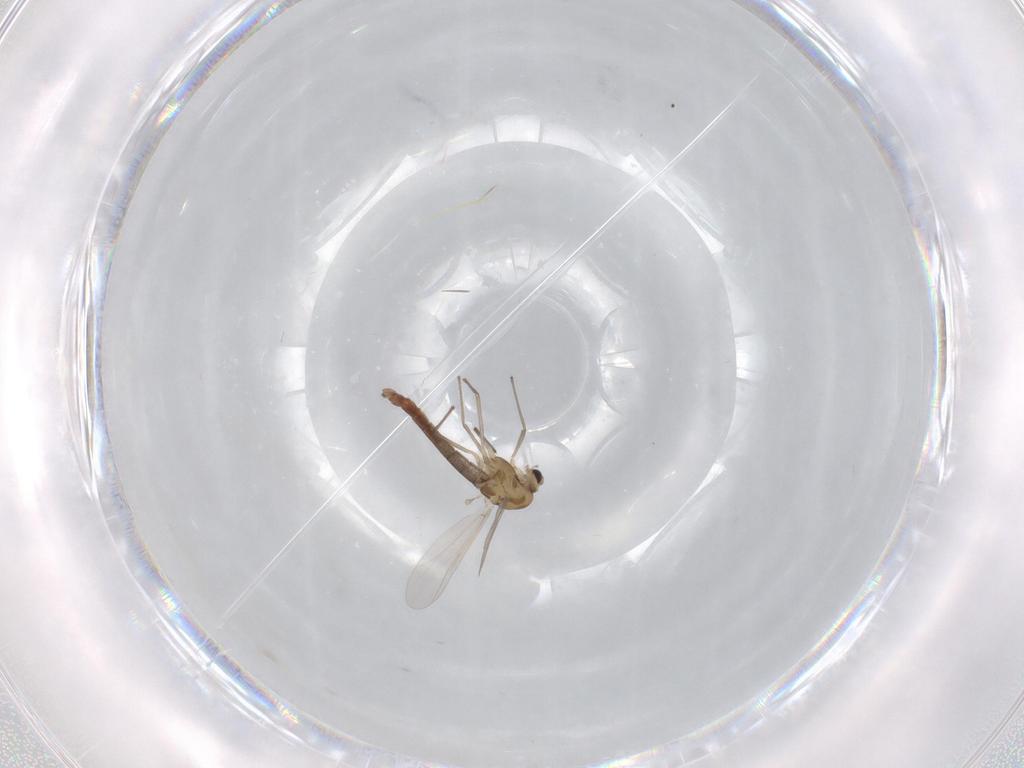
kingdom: Animalia
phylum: Arthropoda
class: Insecta
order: Diptera
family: Chironomidae
